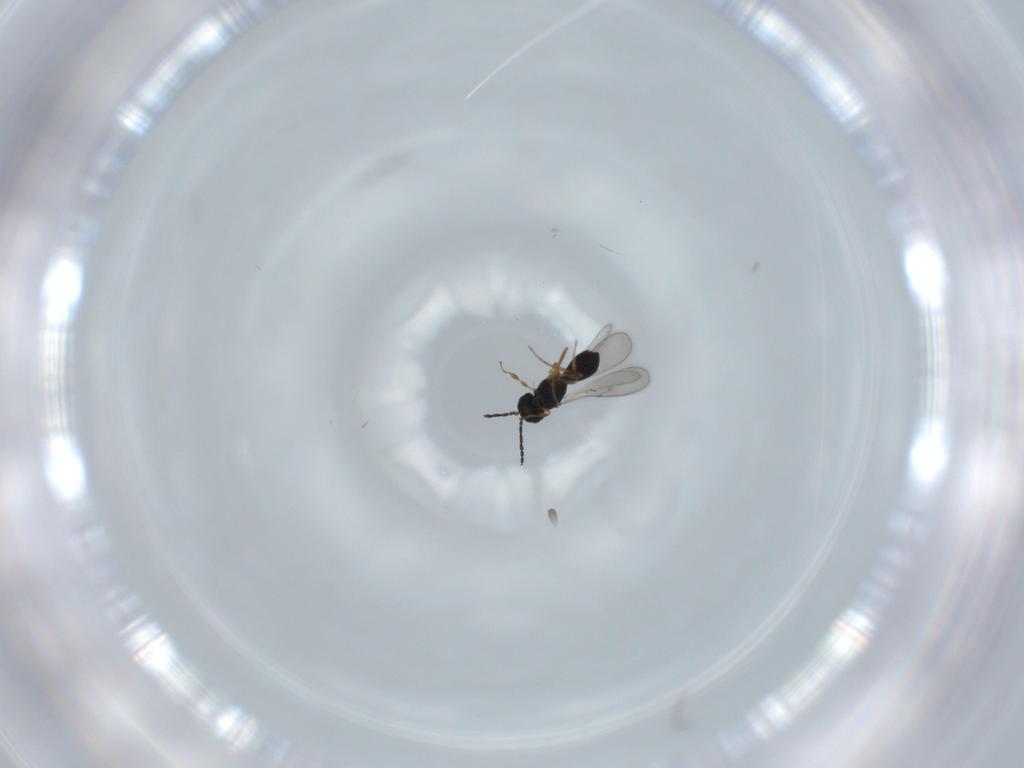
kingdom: Animalia
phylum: Arthropoda
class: Insecta
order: Hymenoptera
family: Scelionidae
